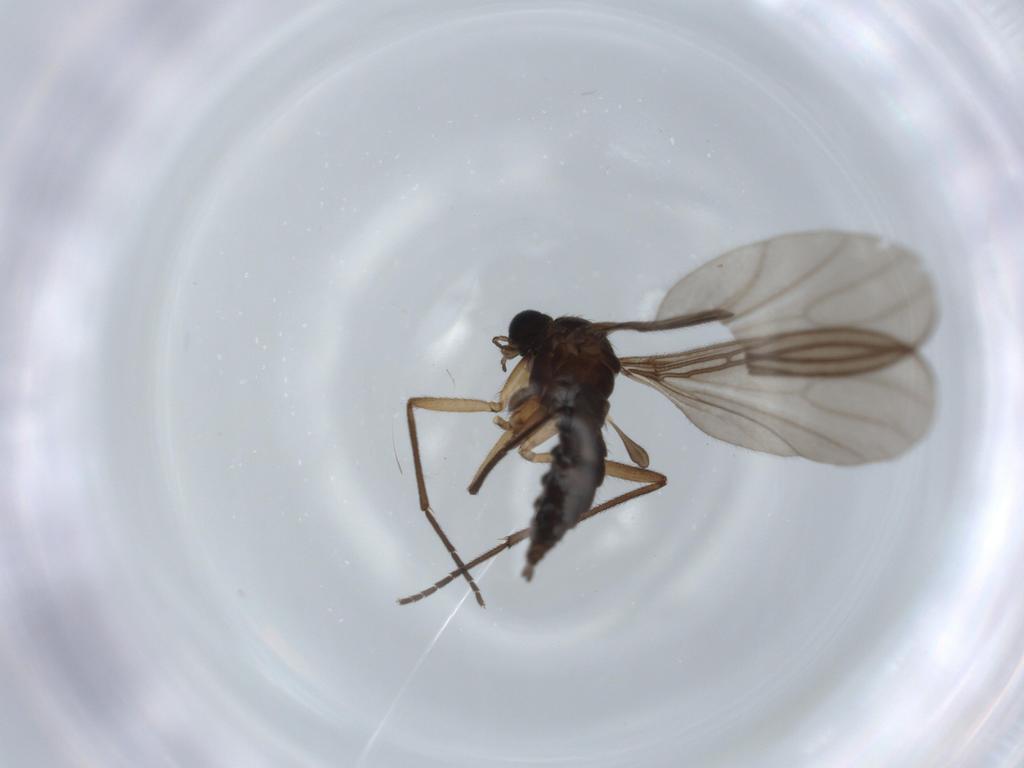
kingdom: Animalia
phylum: Arthropoda
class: Insecta
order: Diptera
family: Sciaridae
